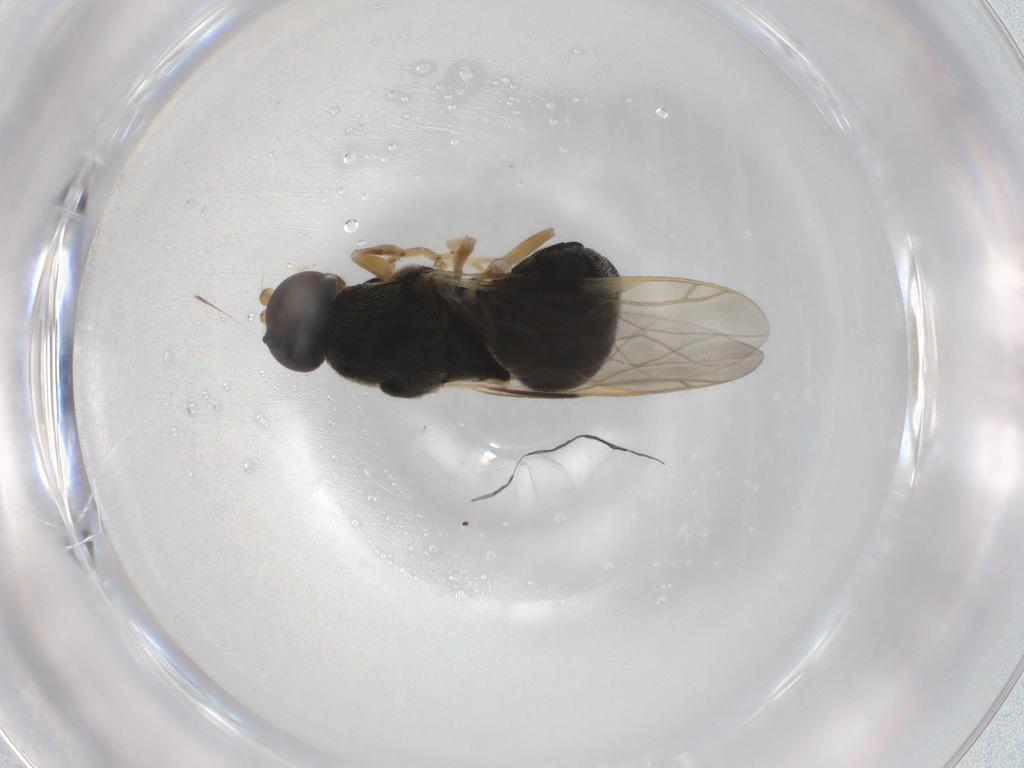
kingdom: Animalia
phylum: Arthropoda
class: Insecta
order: Diptera
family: Stratiomyidae
